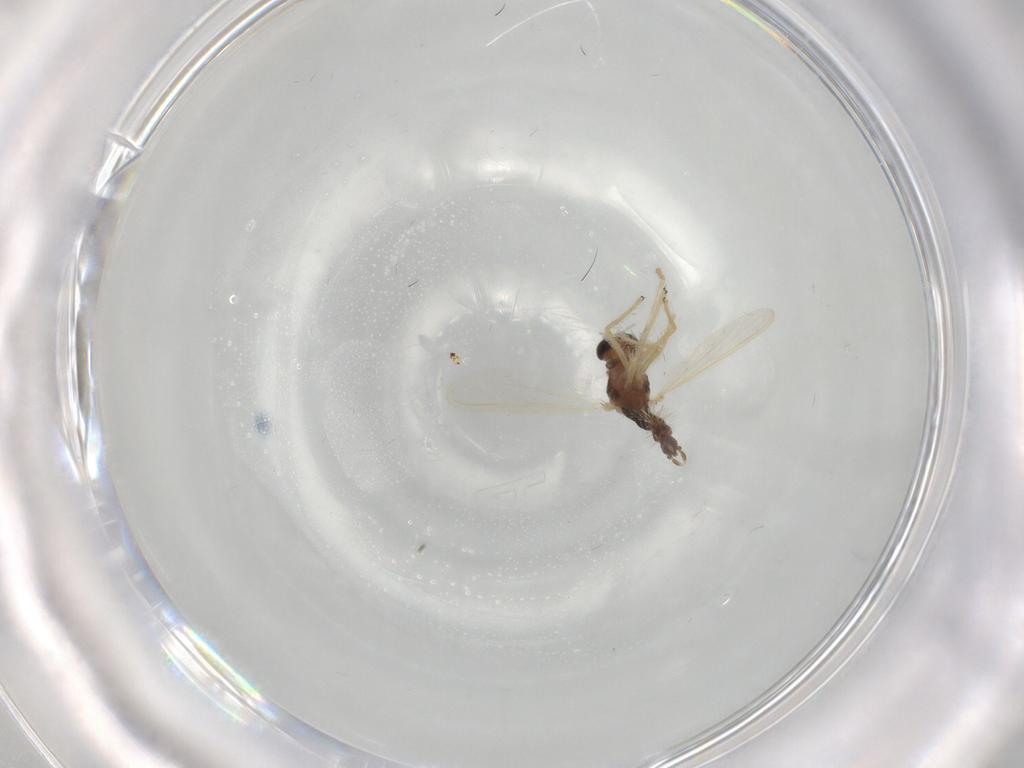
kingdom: Animalia
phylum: Arthropoda
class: Insecta
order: Diptera
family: Chironomidae
